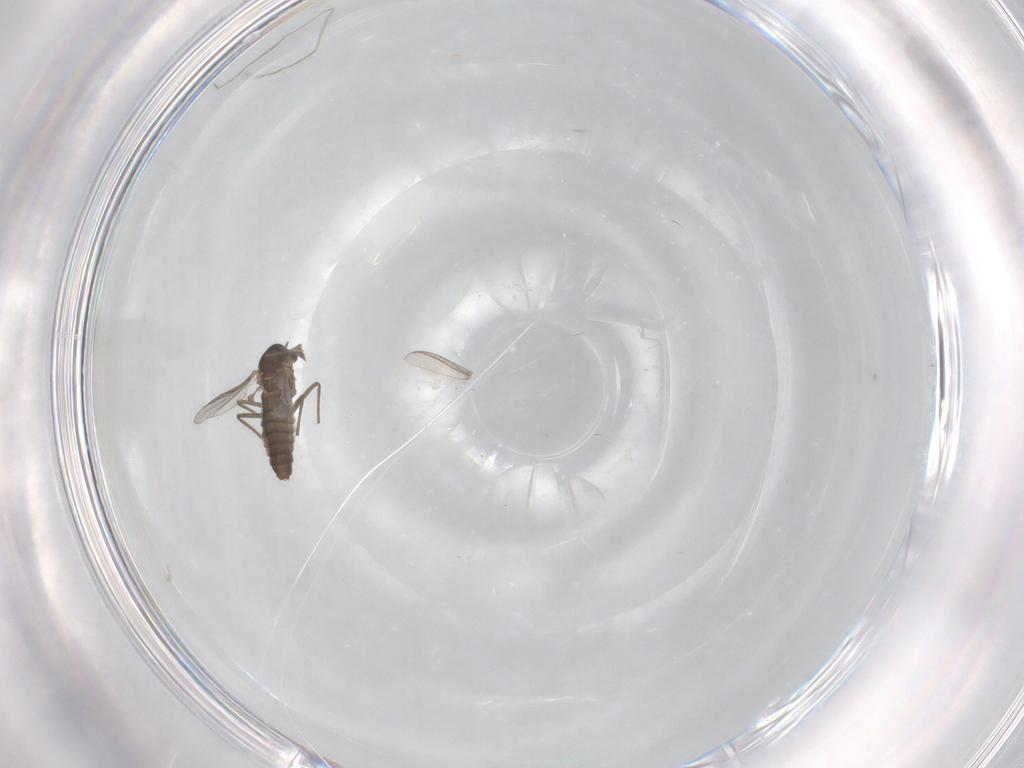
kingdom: Animalia
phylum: Arthropoda
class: Insecta
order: Diptera
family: Chironomidae
